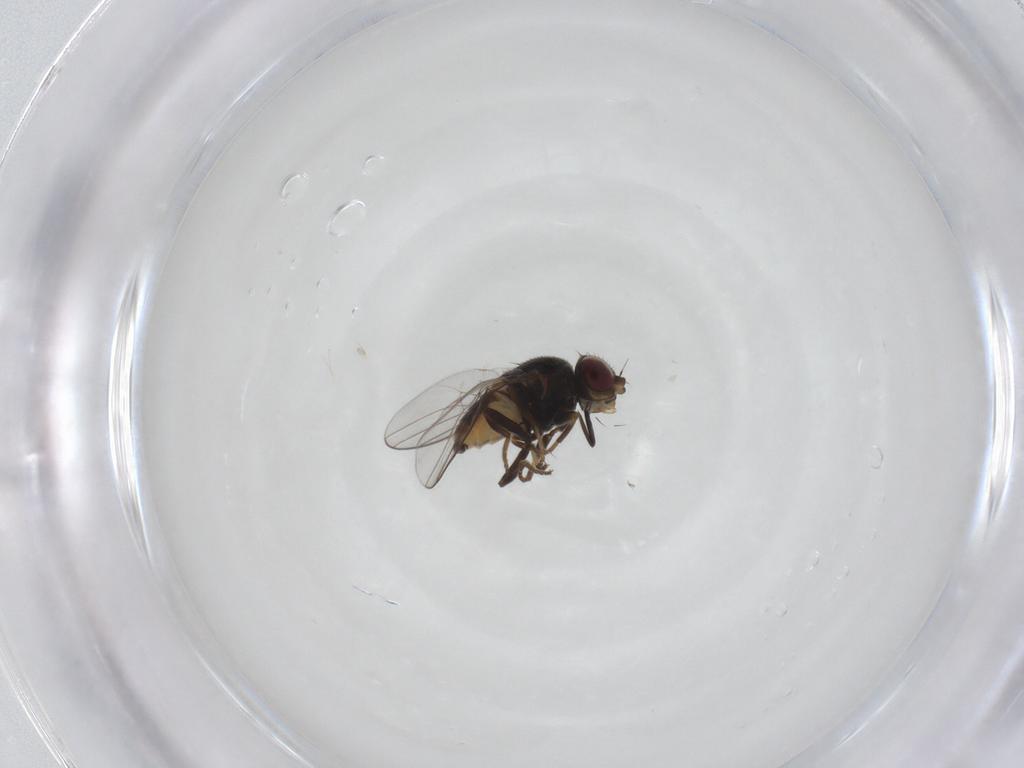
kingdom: Animalia
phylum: Arthropoda
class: Insecta
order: Diptera
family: Chloropidae
